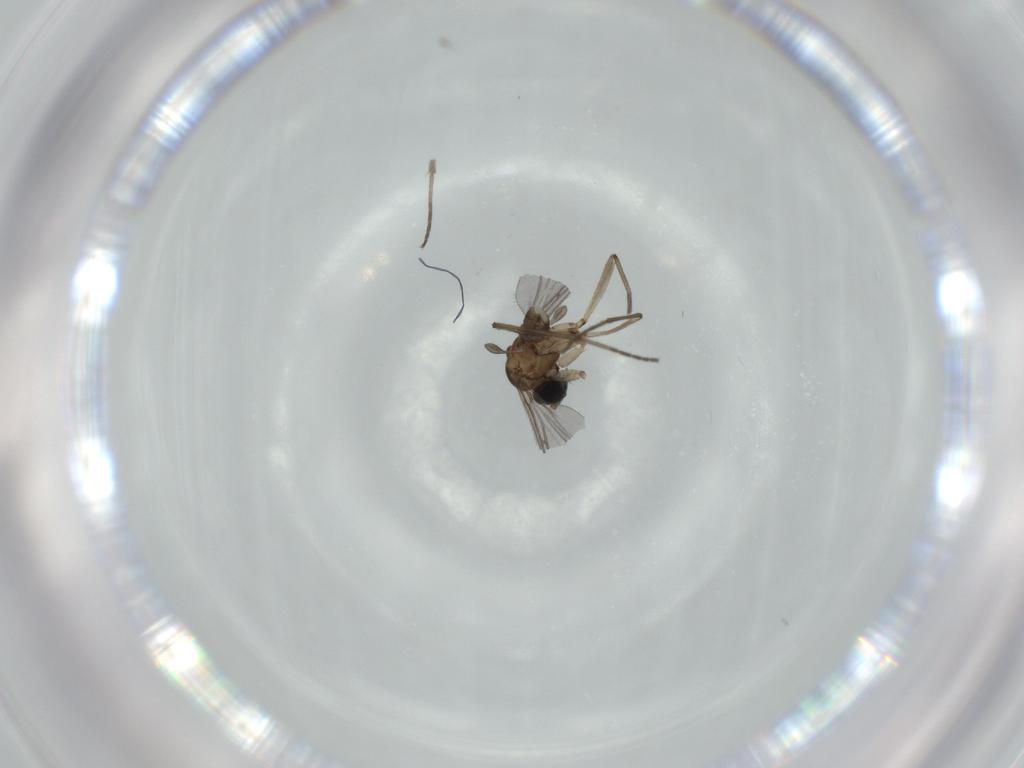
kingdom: Animalia
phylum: Arthropoda
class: Insecta
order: Diptera
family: Sciaridae
